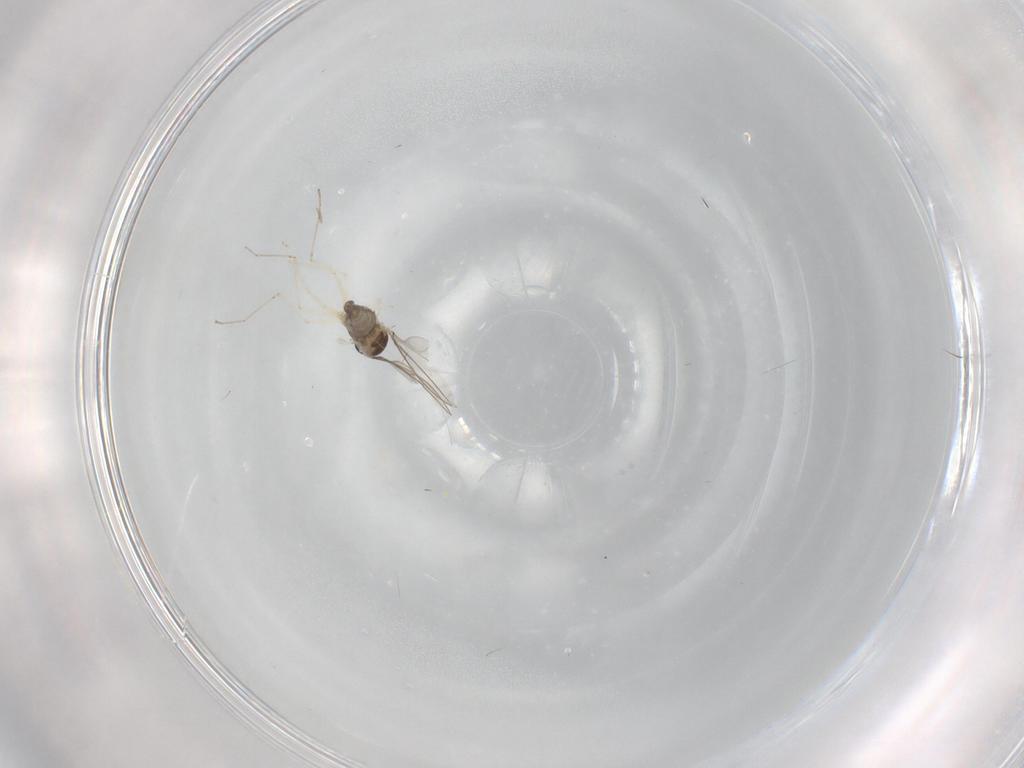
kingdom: Animalia
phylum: Arthropoda
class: Insecta
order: Diptera
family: Cecidomyiidae
